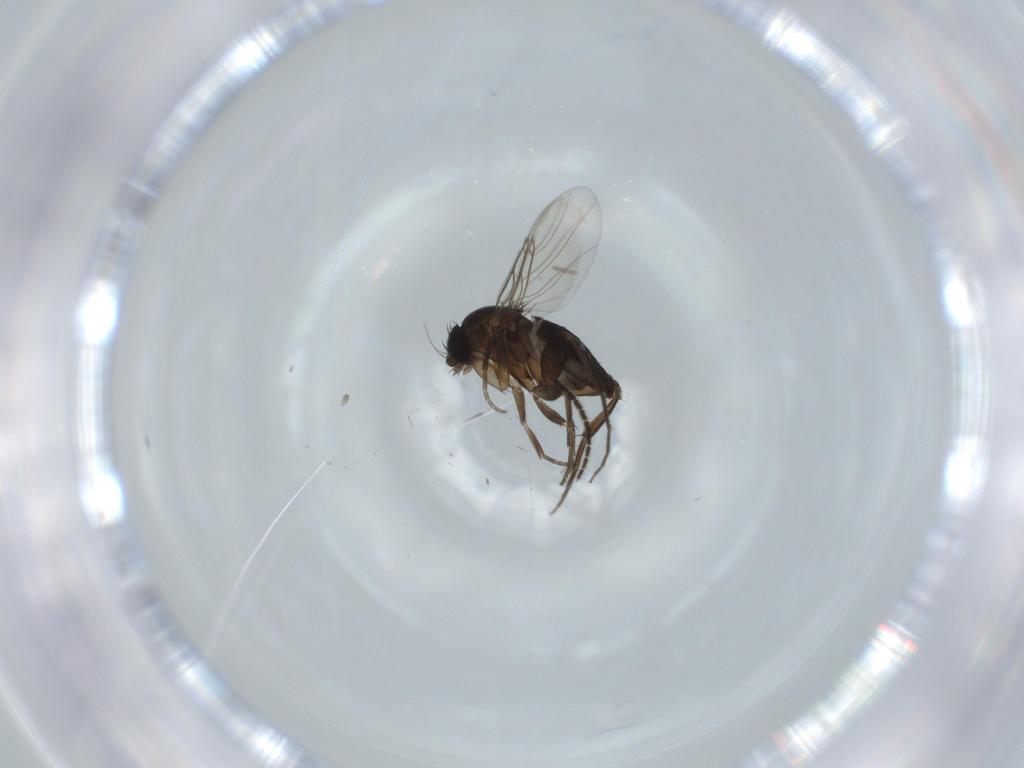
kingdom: Animalia
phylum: Arthropoda
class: Insecta
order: Diptera
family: Phoridae
